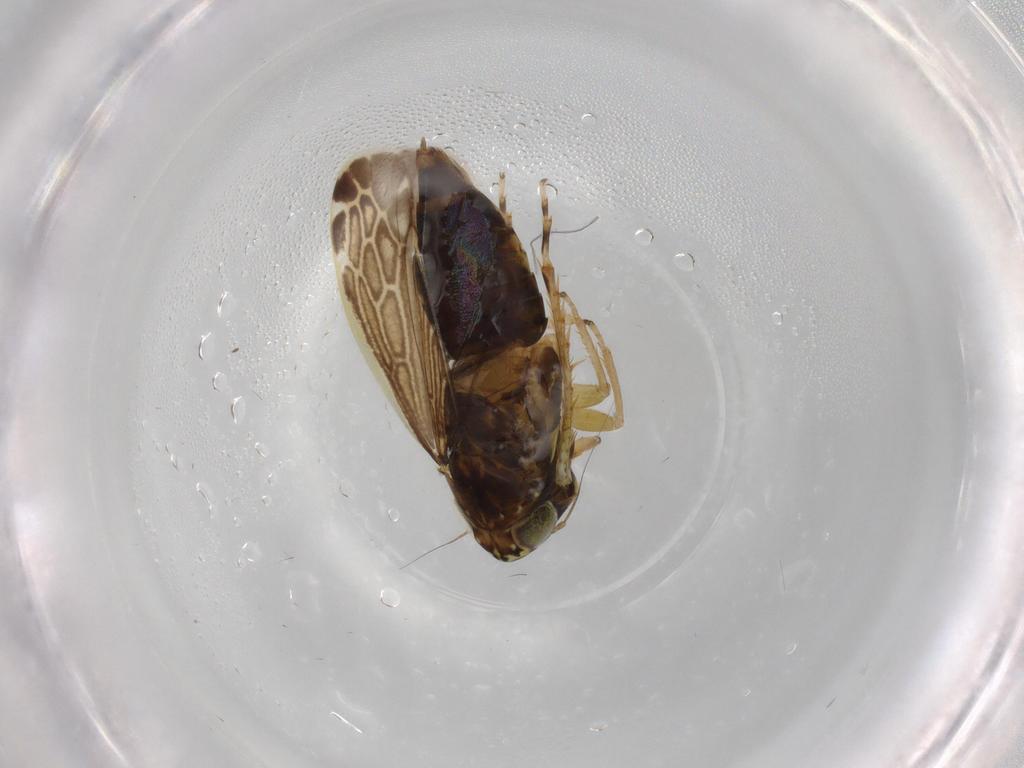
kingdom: Animalia
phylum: Arthropoda
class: Insecta
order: Hemiptera
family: Cicadellidae
